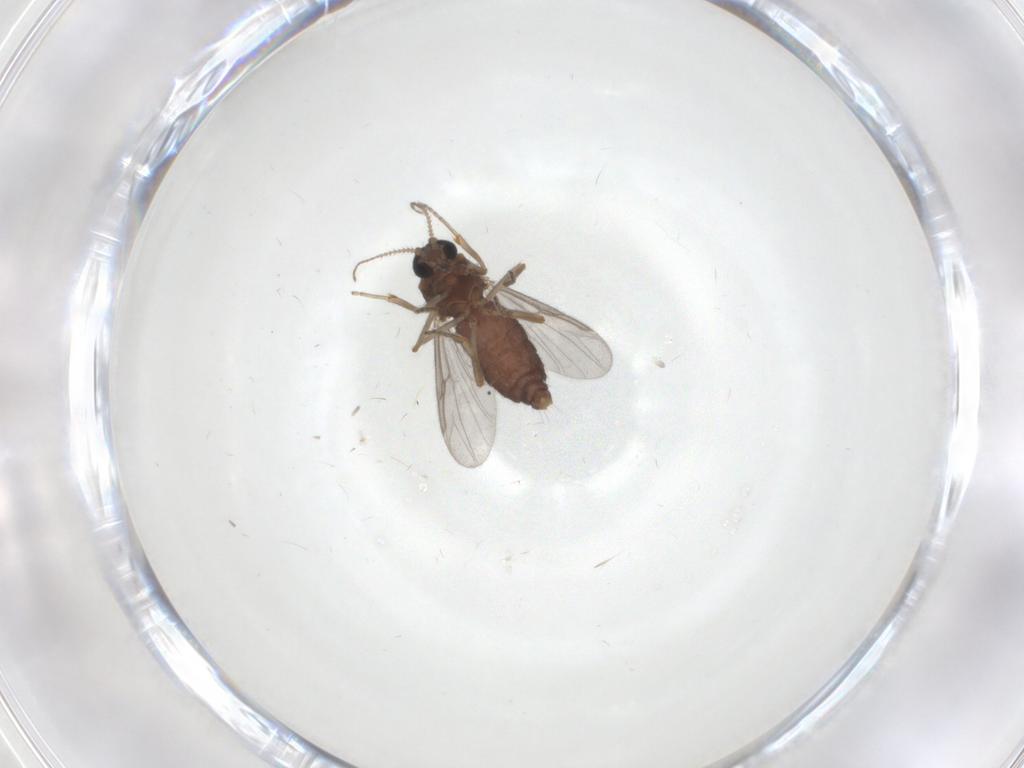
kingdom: Animalia
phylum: Arthropoda
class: Insecta
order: Diptera
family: Ceratopogonidae
